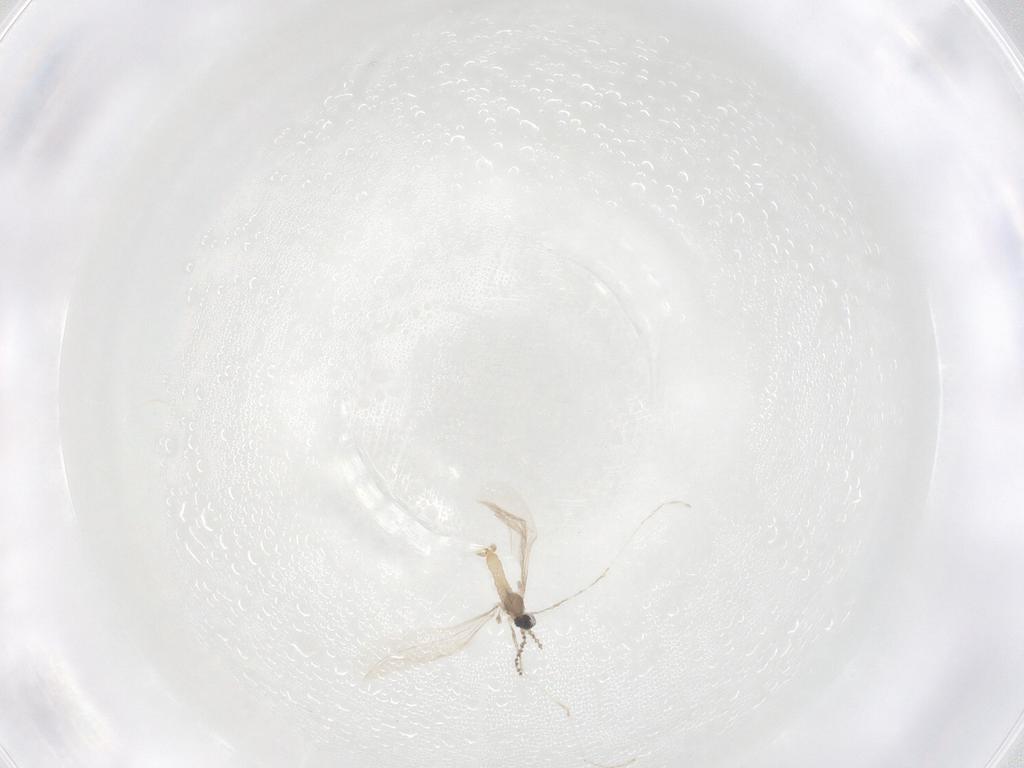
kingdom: Animalia
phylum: Arthropoda
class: Insecta
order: Diptera
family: Cecidomyiidae
